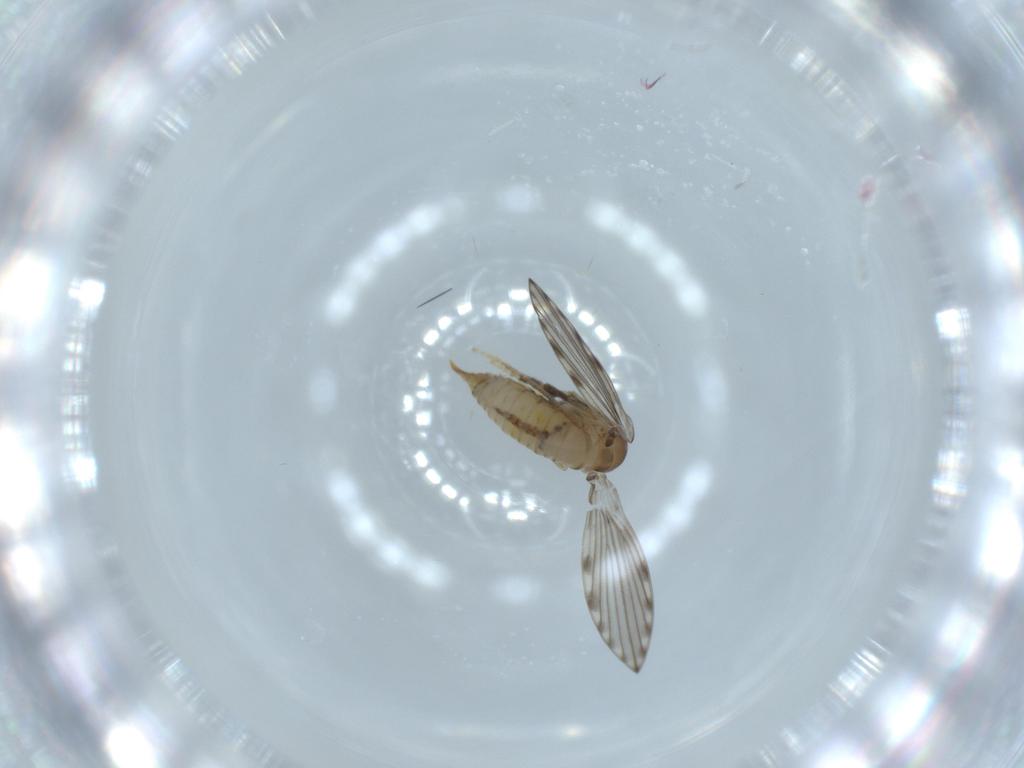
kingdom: Animalia
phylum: Arthropoda
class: Insecta
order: Diptera
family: Psychodidae
